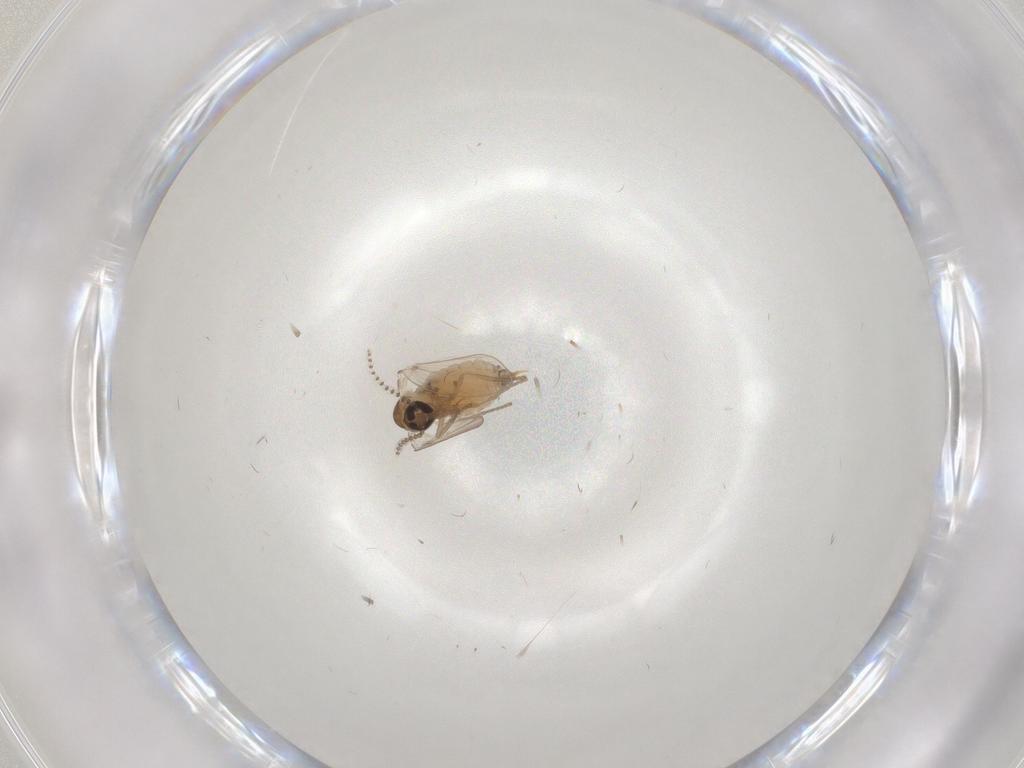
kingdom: Animalia
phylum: Arthropoda
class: Insecta
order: Diptera
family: Psychodidae
